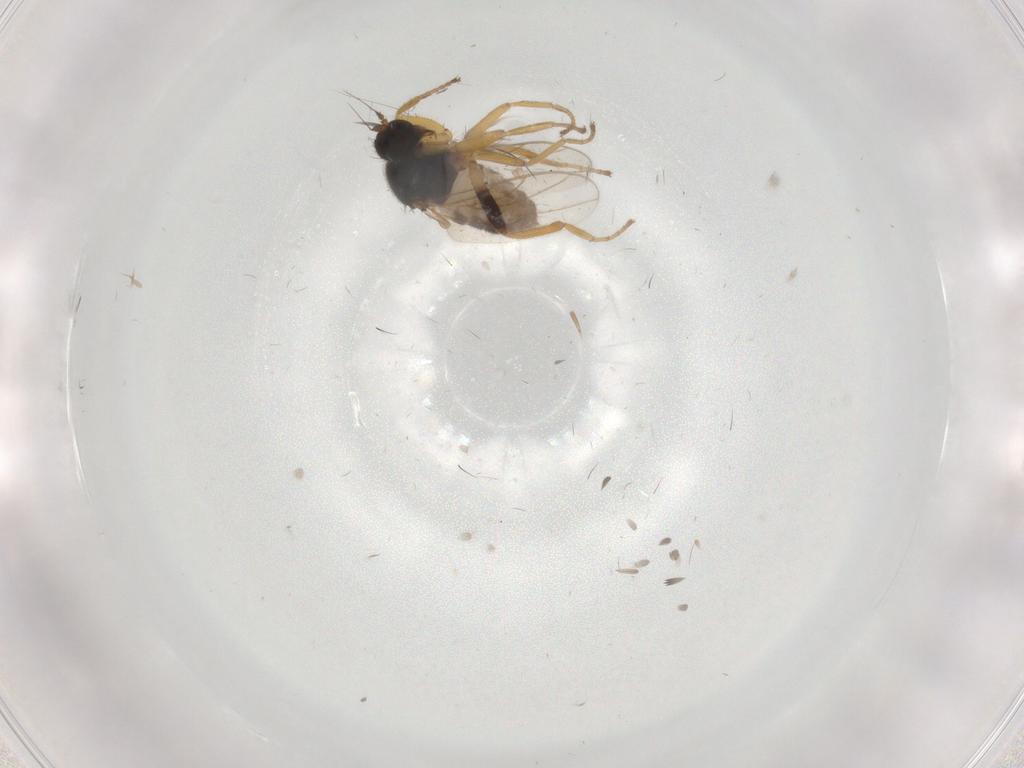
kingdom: Animalia
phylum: Arthropoda
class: Insecta
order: Diptera
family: Hybotidae
